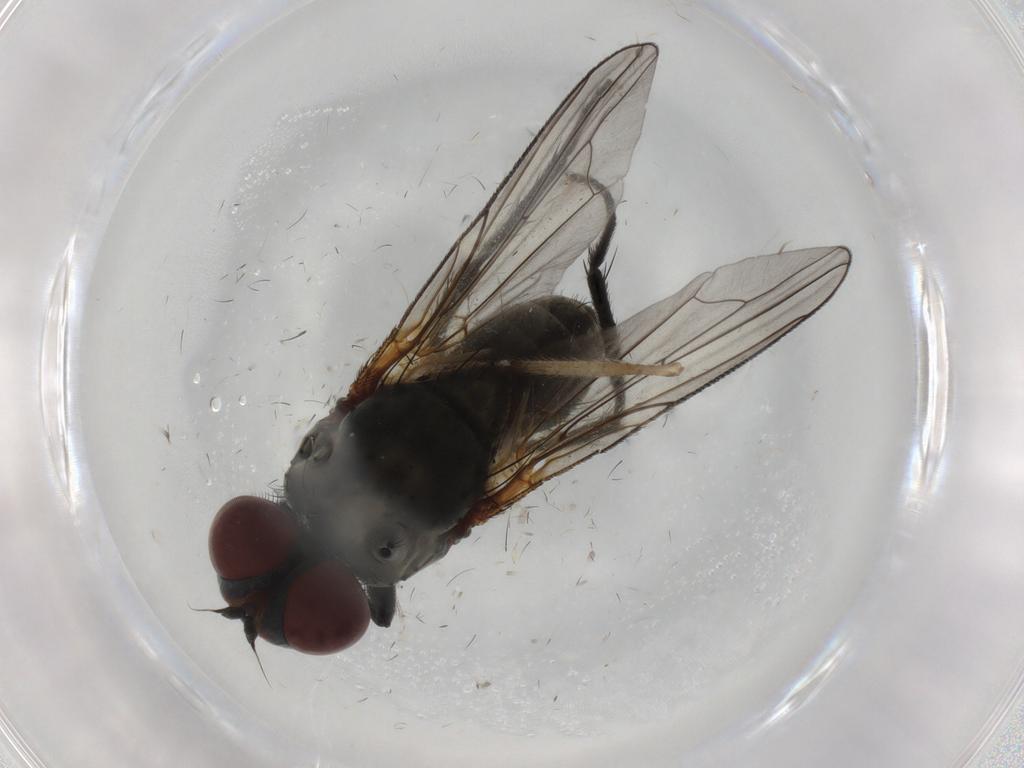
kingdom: Animalia
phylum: Arthropoda
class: Insecta
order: Diptera
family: Anthomyiidae
